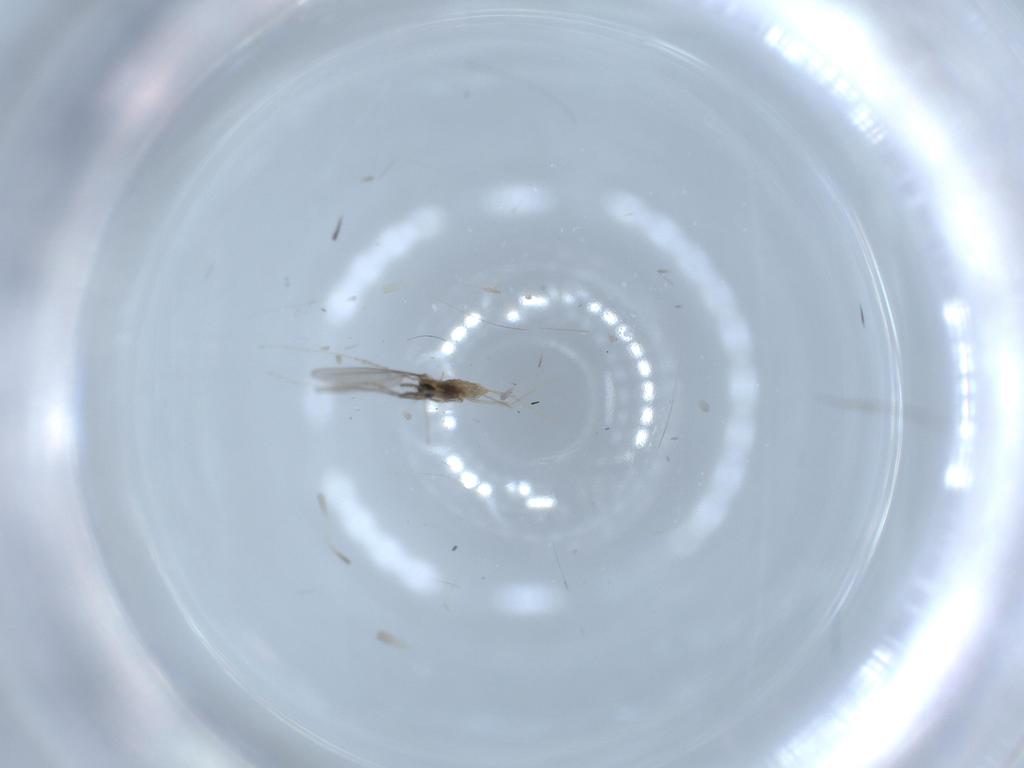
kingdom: Animalia
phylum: Arthropoda
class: Insecta
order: Diptera
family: Cecidomyiidae
